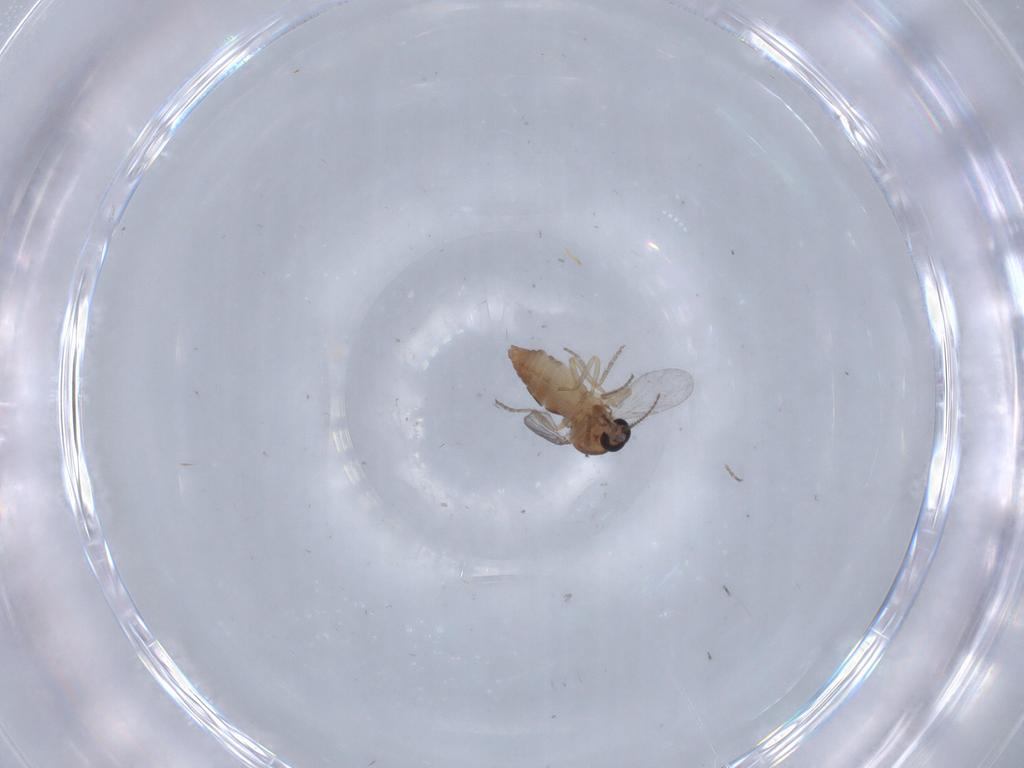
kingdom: Animalia
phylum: Arthropoda
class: Insecta
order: Diptera
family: Ceratopogonidae
